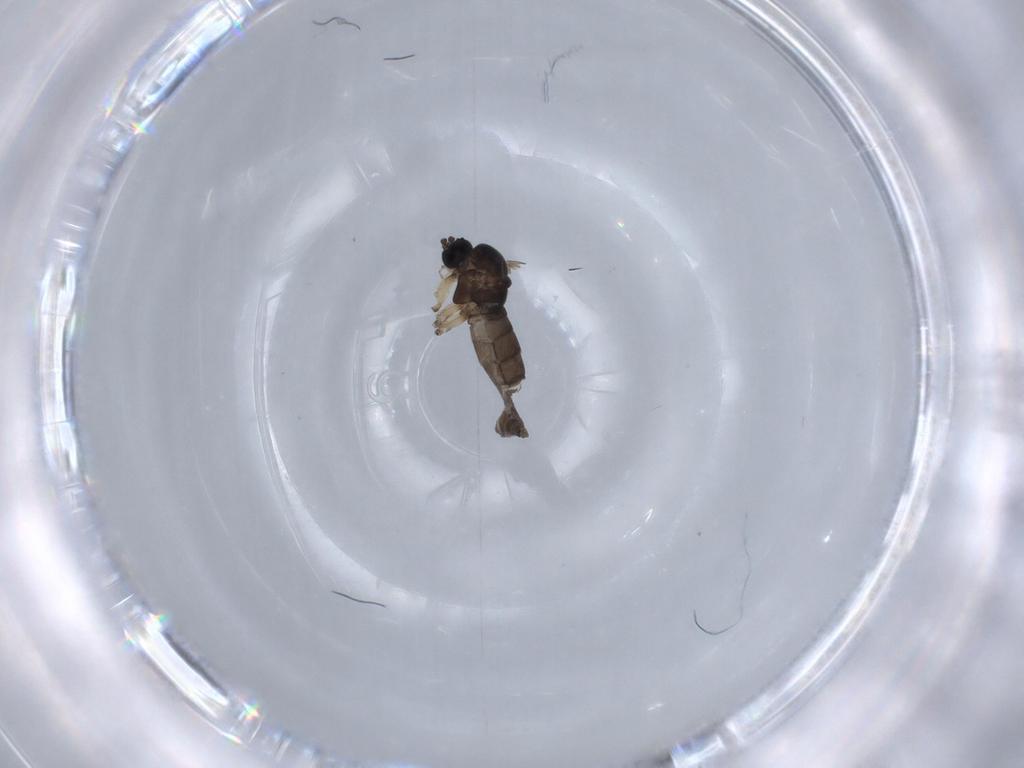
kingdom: Animalia
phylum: Arthropoda
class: Insecta
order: Diptera
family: Sciaridae
